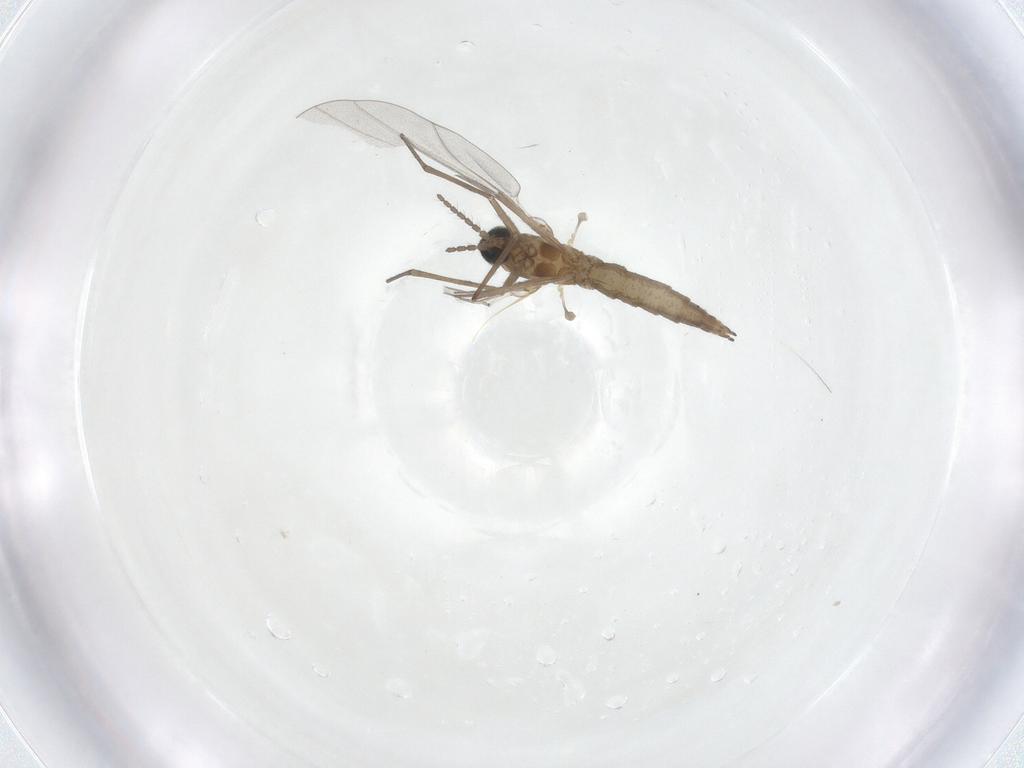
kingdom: Animalia
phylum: Arthropoda
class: Insecta
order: Diptera
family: Cecidomyiidae
